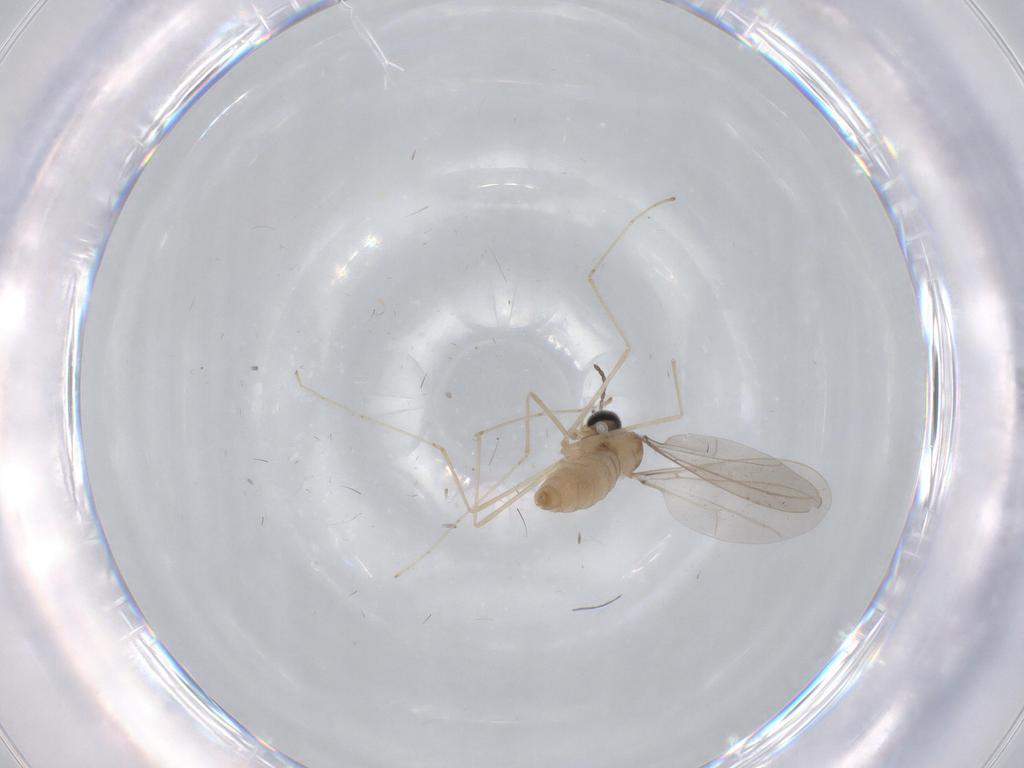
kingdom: Animalia
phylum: Arthropoda
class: Insecta
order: Diptera
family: Cecidomyiidae
